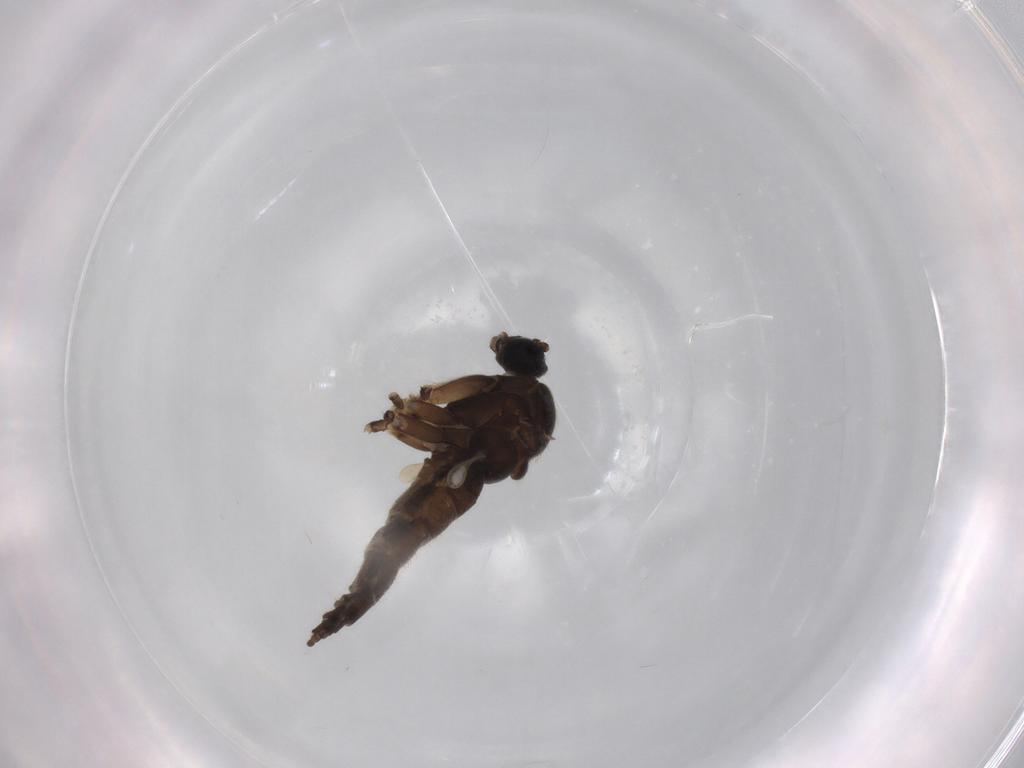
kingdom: Animalia
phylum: Arthropoda
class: Insecta
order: Diptera
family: Sciaridae
